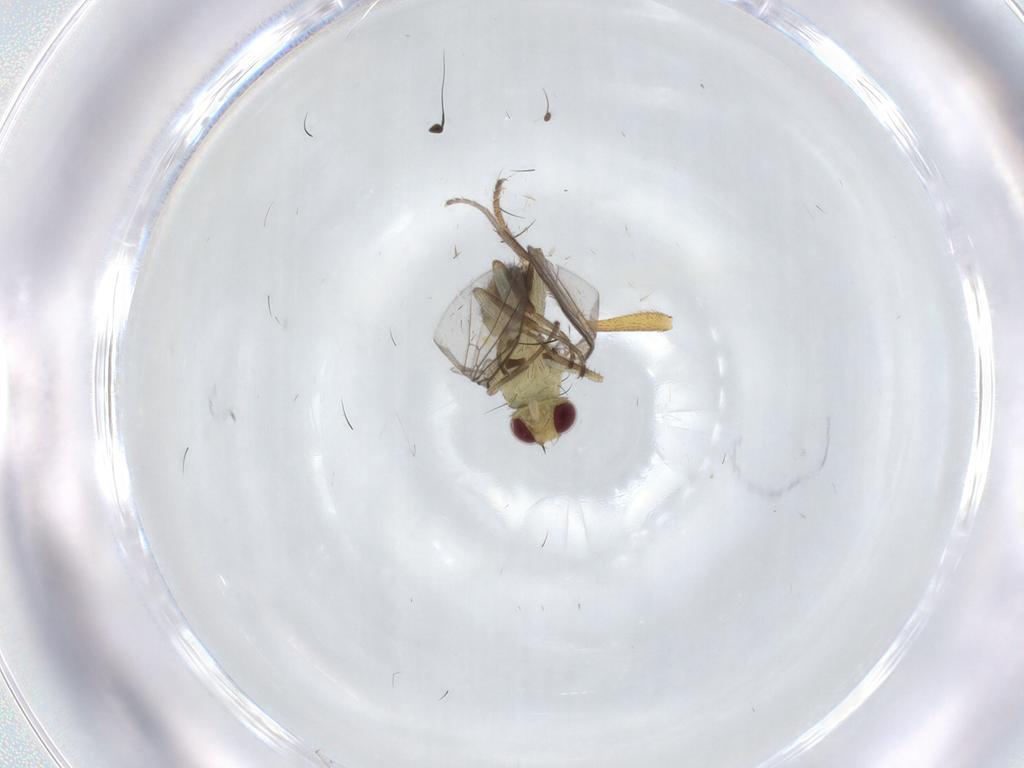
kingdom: Animalia
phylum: Arthropoda
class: Insecta
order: Diptera
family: Agromyzidae
